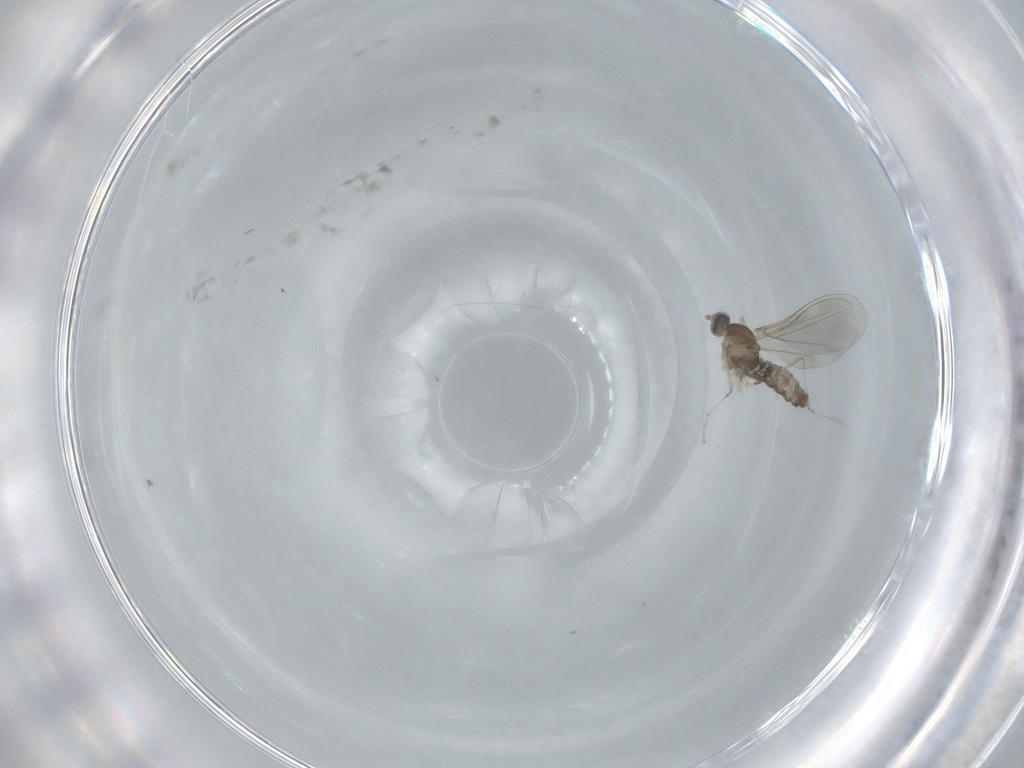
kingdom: Animalia
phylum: Arthropoda
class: Insecta
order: Diptera
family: Cecidomyiidae
